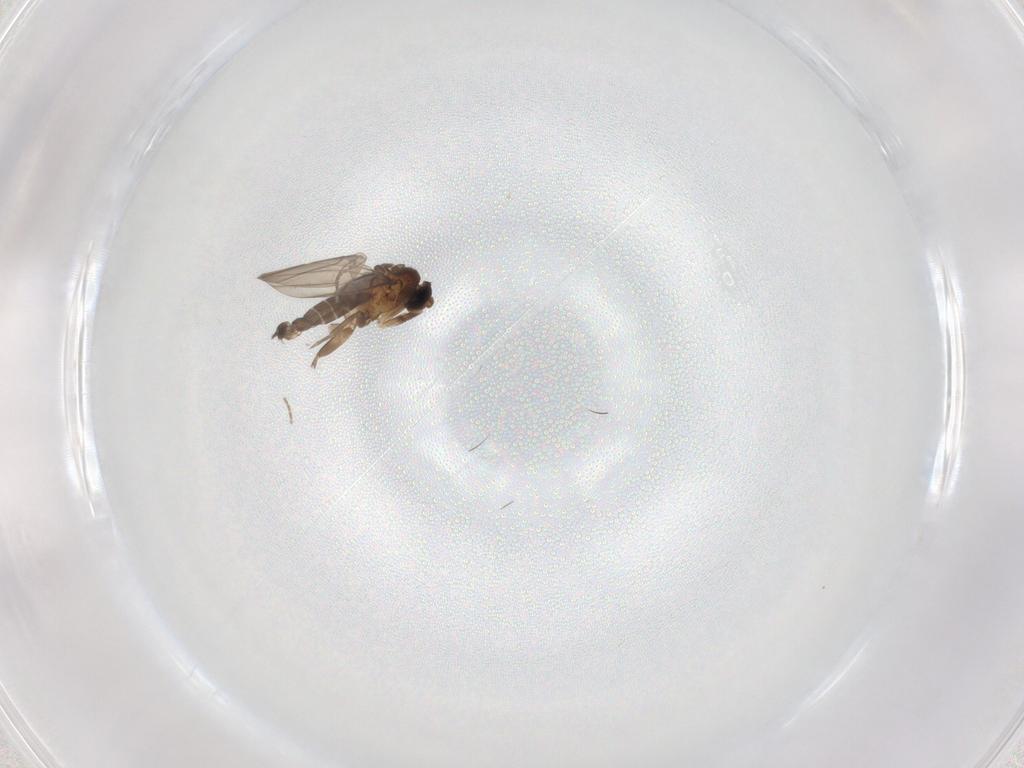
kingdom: Animalia
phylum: Arthropoda
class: Insecta
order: Diptera
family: Phoridae
